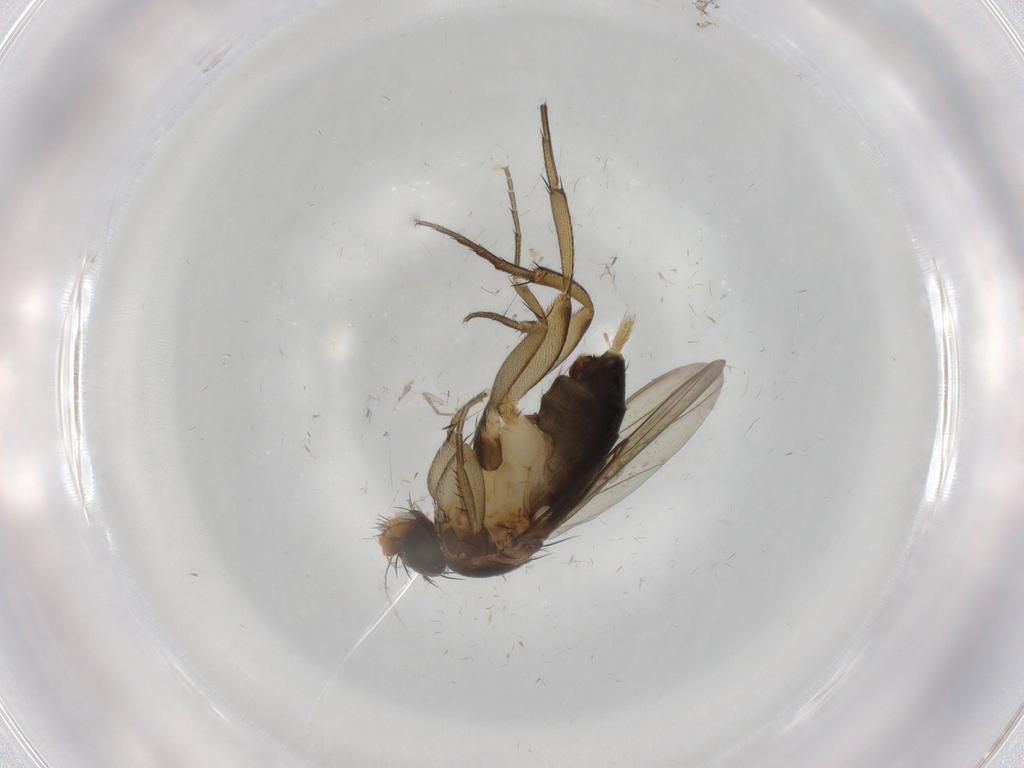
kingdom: Animalia
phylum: Arthropoda
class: Insecta
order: Diptera
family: Phoridae
